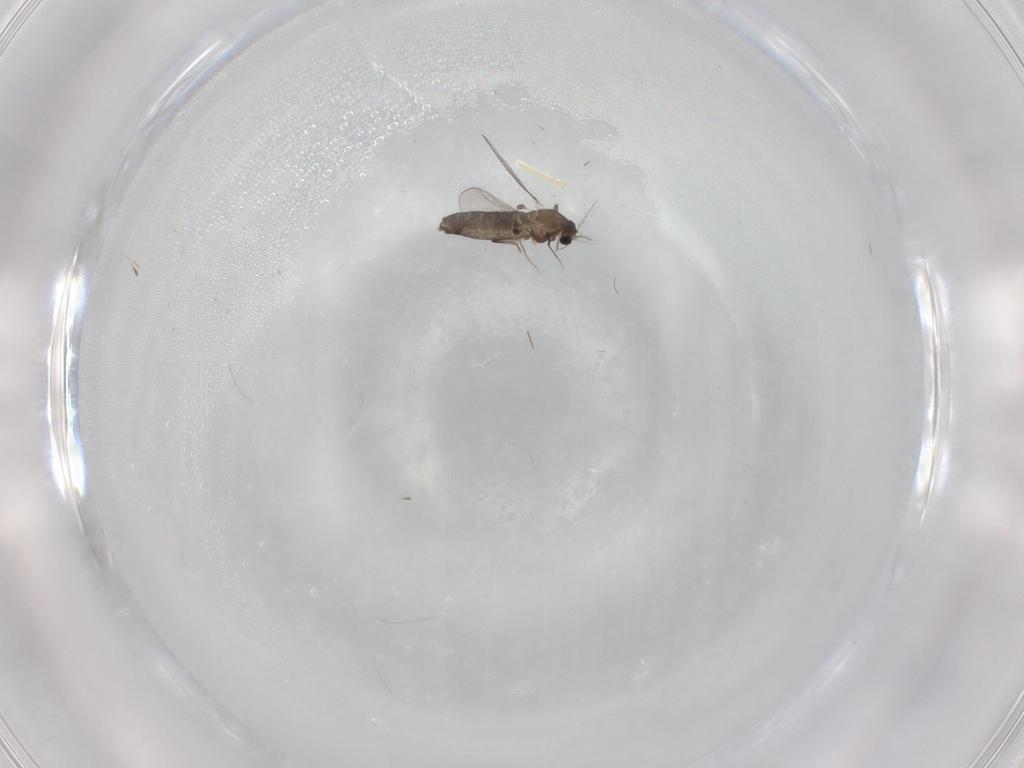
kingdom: Animalia
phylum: Arthropoda
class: Insecta
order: Diptera
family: Chironomidae
